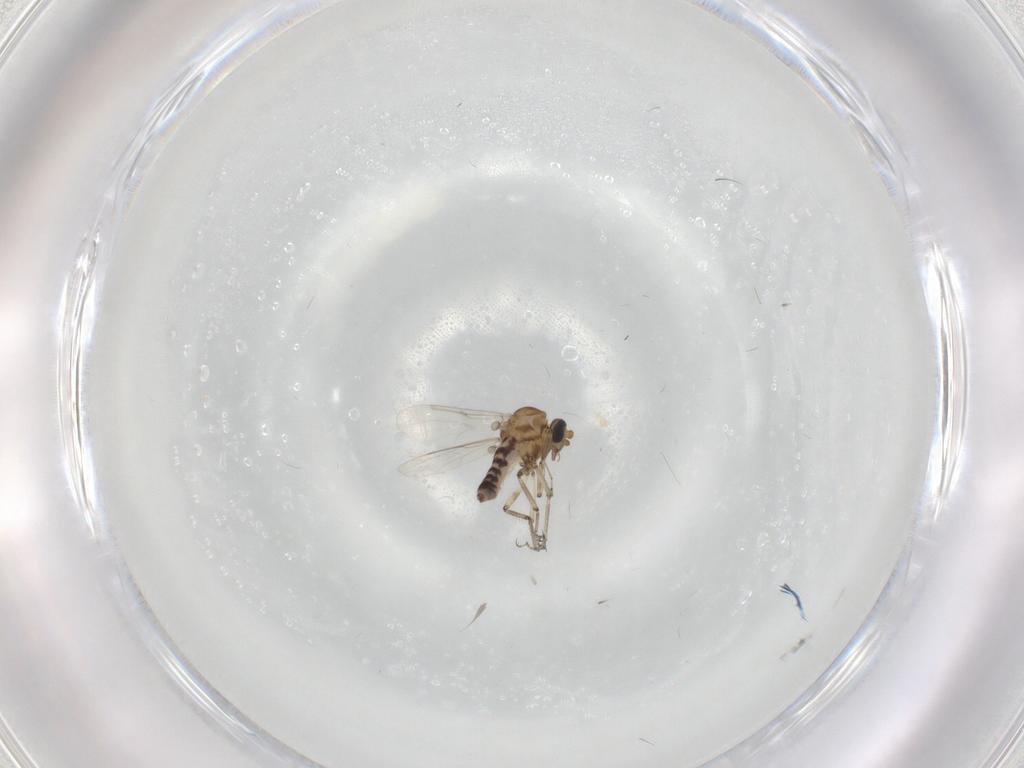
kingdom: Animalia
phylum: Arthropoda
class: Insecta
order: Diptera
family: Ceratopogonidae
